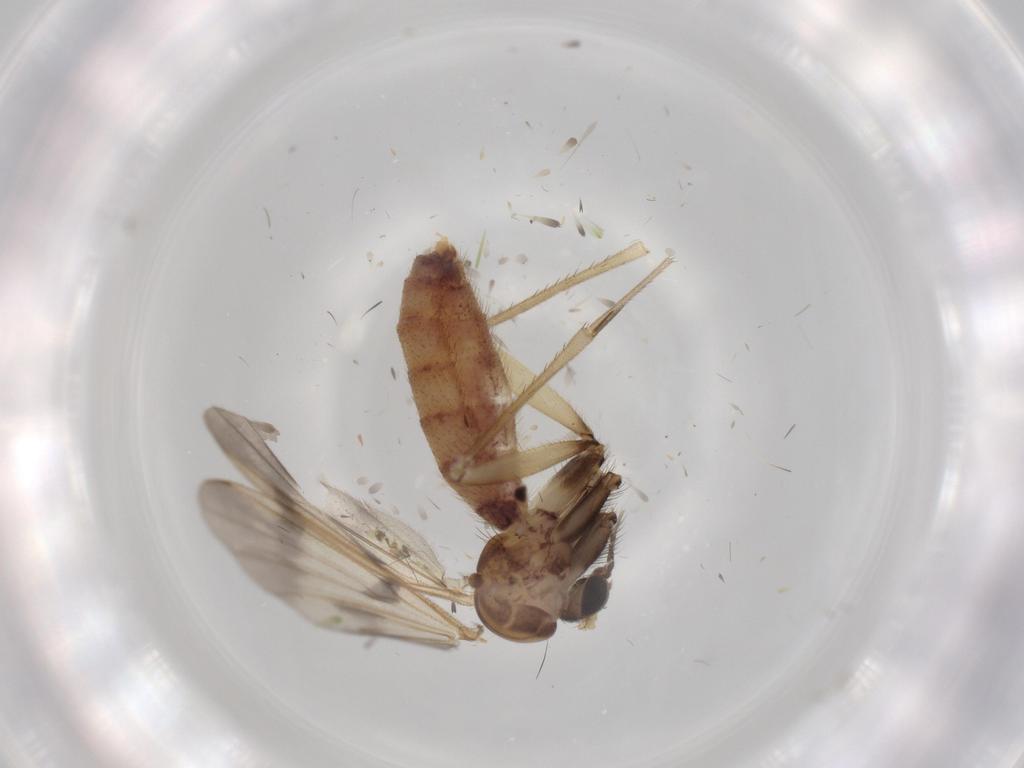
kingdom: Animalia
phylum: Arthropoda
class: Insecta
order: Diptera
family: Mycetophilidae
